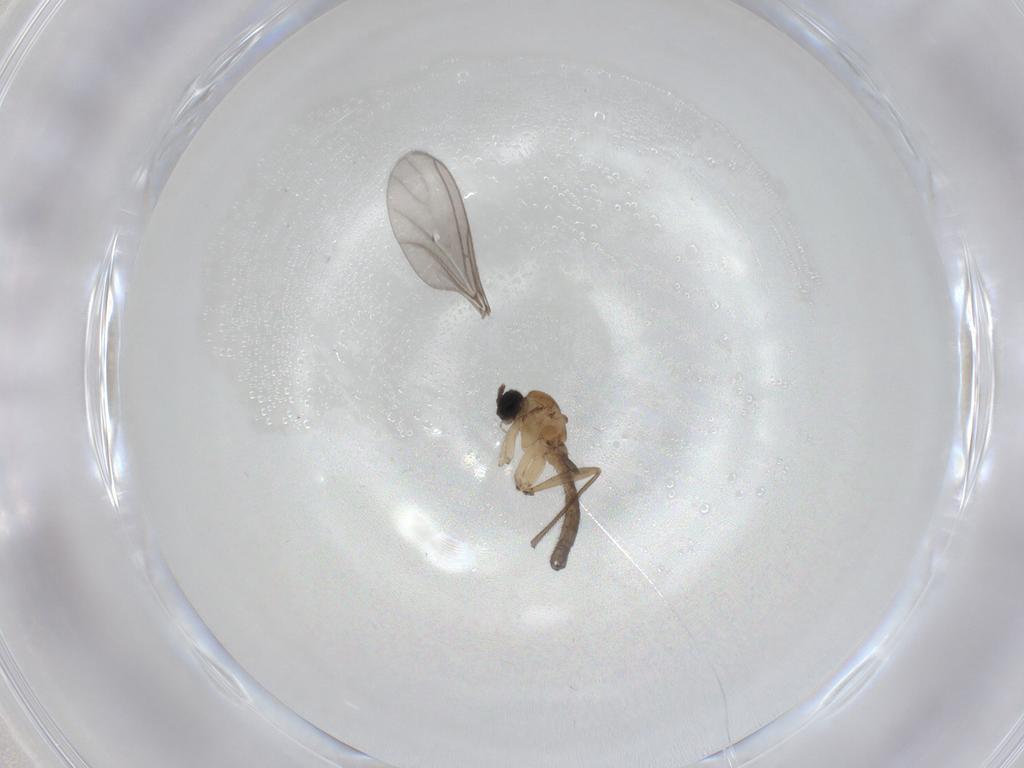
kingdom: Animalia
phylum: Arthropoda
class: Insecta
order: Diptera
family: Sciaridae
